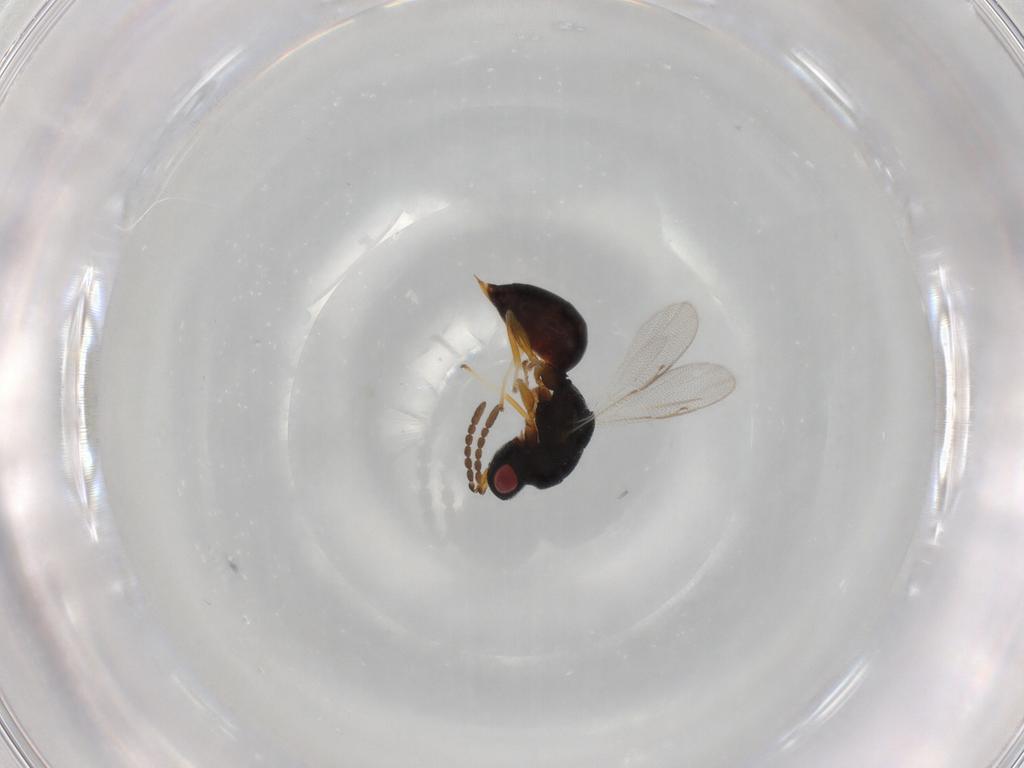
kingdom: Animalia
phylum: Arthropoda
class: Insecta
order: Hymenoptera
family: Eurytomidae
